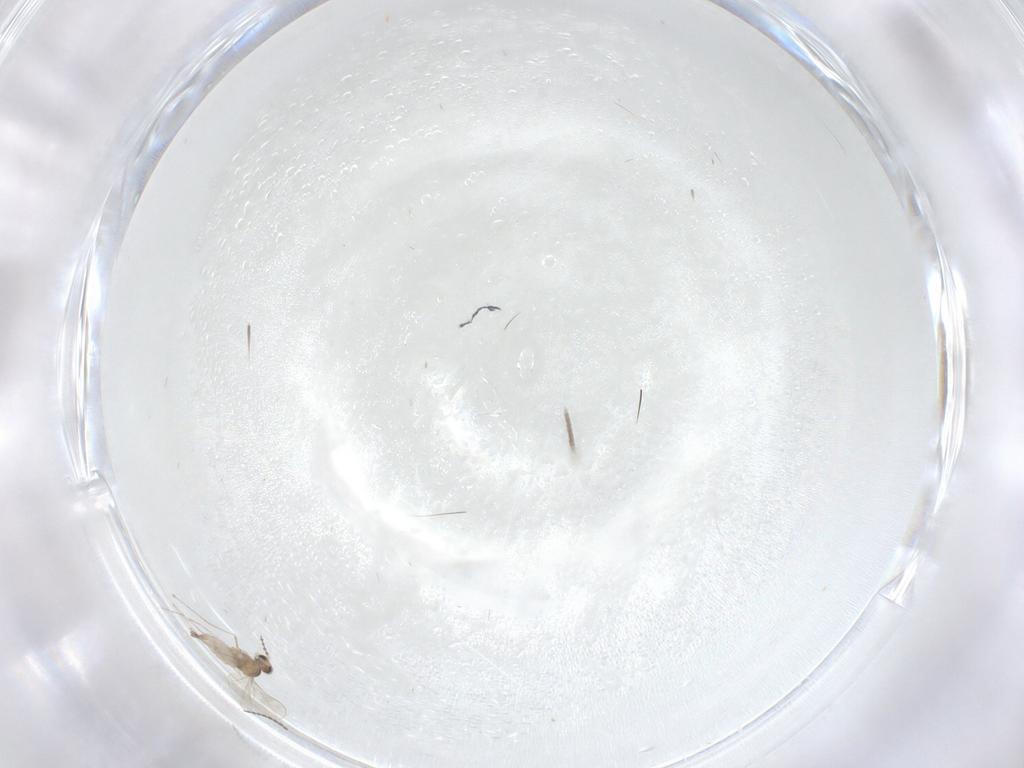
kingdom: Animalia
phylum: Arthropoda
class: Insecta
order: Diptera
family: Cecidomyiidae
